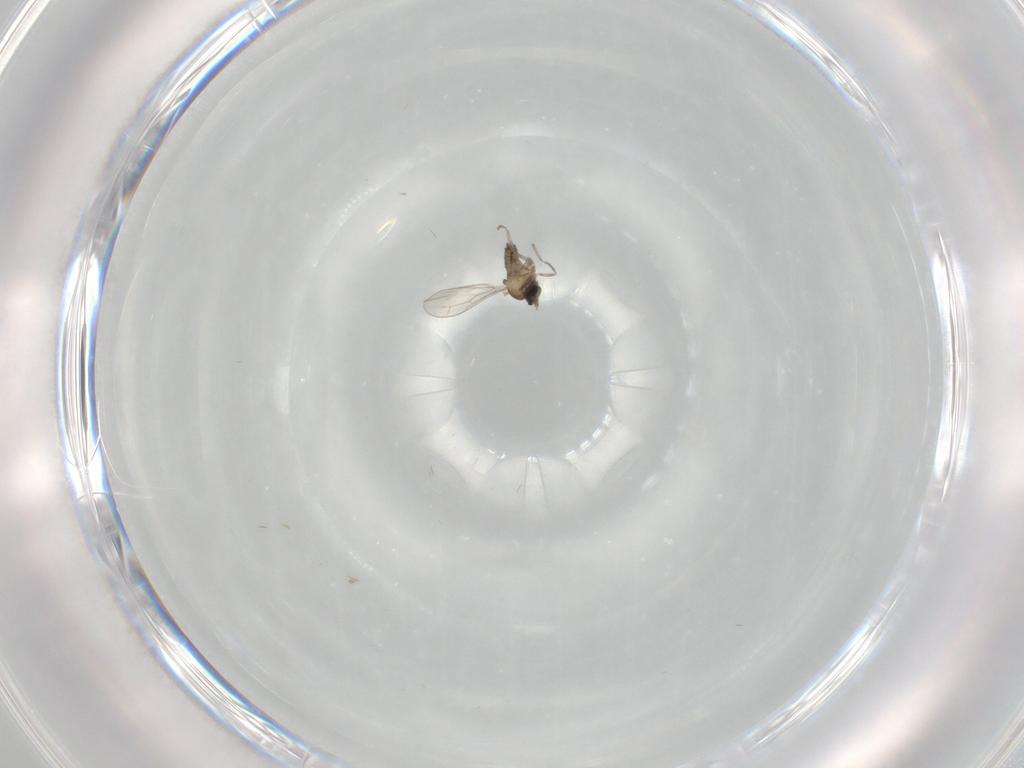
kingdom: Animalia
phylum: Arthropoda
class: Insecta
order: Diptera
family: Cecidomyiidae
